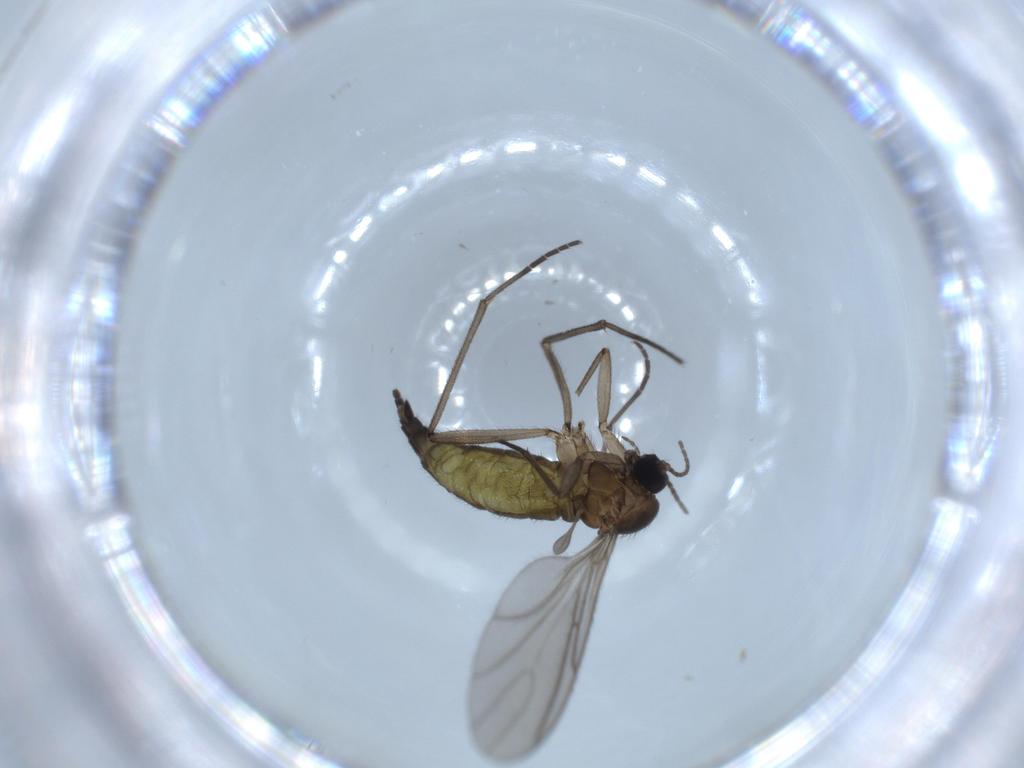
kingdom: Animalia
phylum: Arthropoda
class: Insecta
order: Diptera
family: Sciaridae
